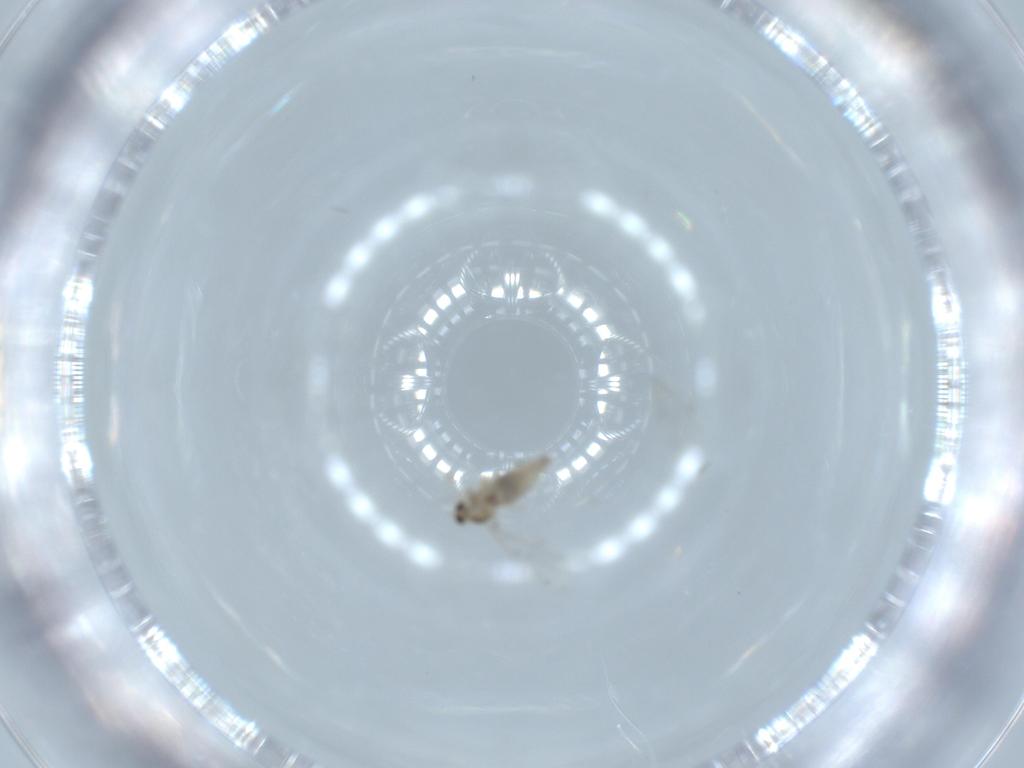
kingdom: Animalia
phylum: Arthropoda
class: Insecta
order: Diptera
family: Cecidomyiidae
